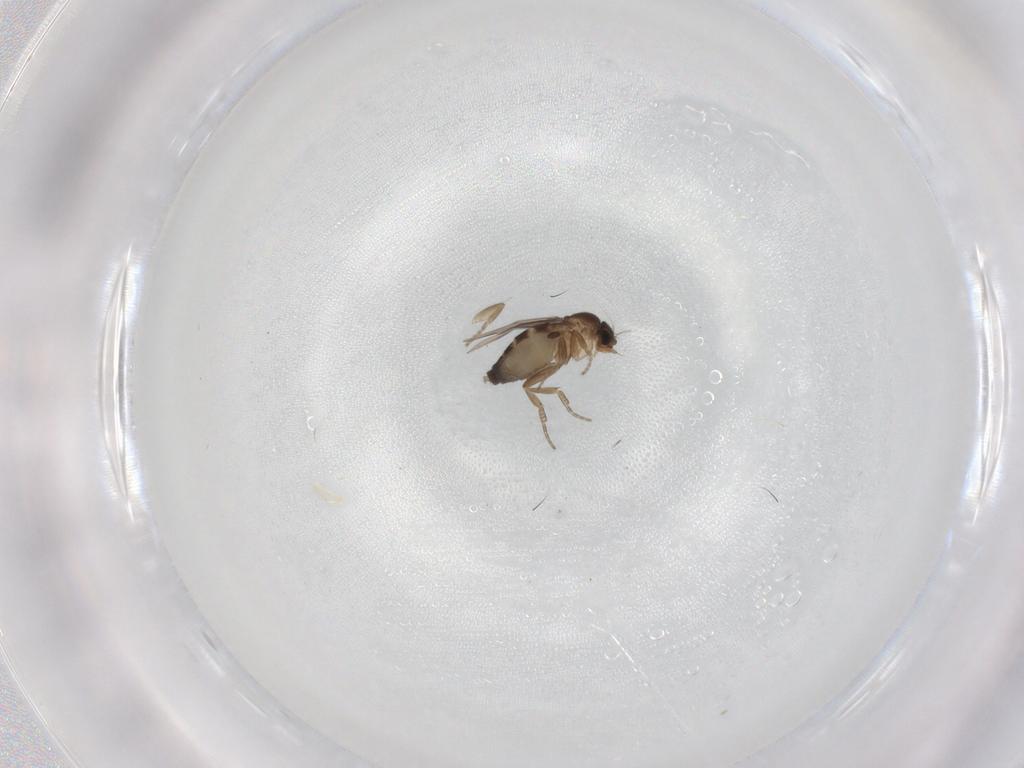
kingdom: Animalia
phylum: Arthropoda
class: Insecta
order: Diptera
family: Phoridae
